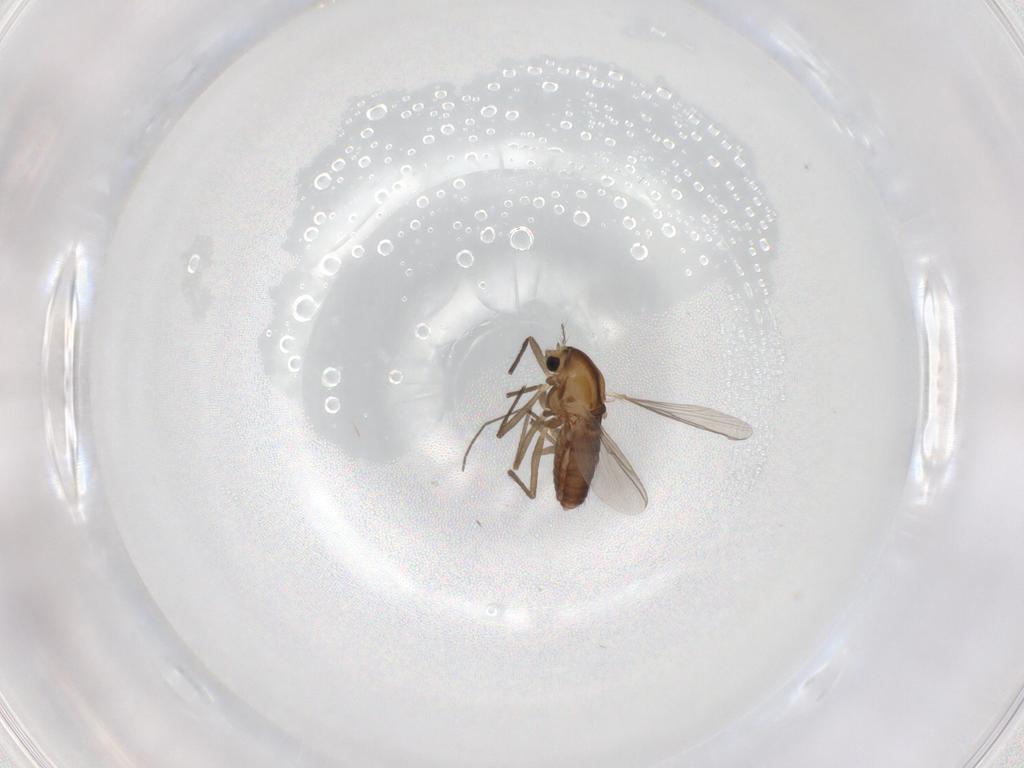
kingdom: Animalia
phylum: Arthropoda
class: Insecta
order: Diptera
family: Chironomidae
